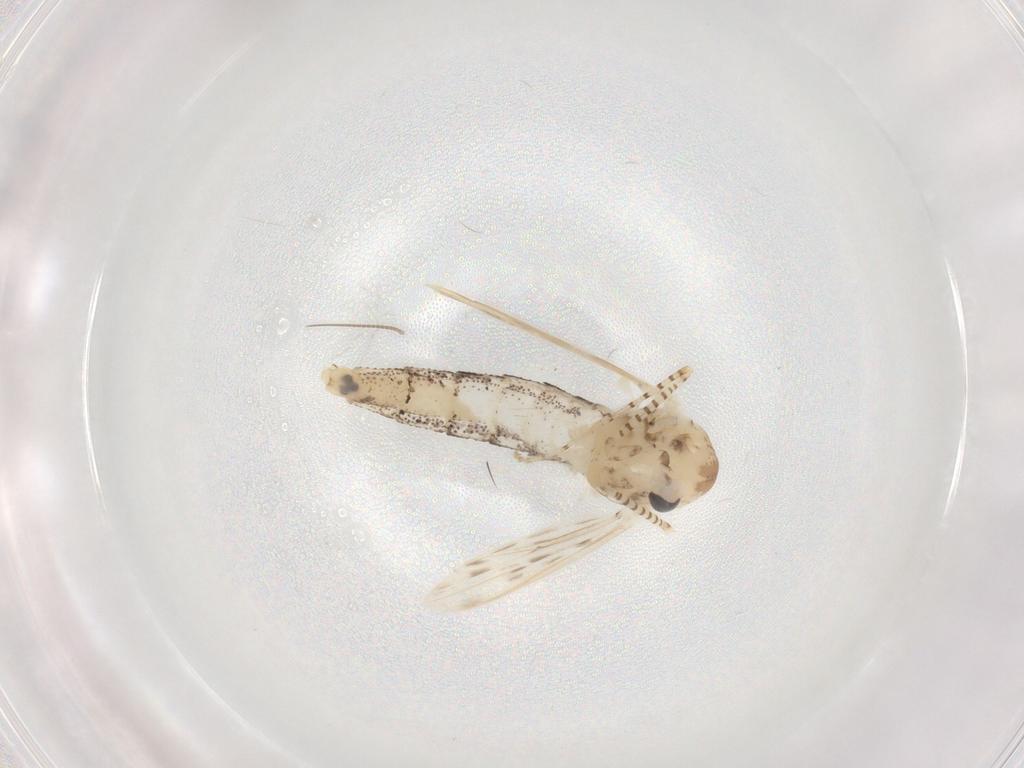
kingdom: Animalia
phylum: Arthropoda
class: Insecta
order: Diptera
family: Chaoboridae
